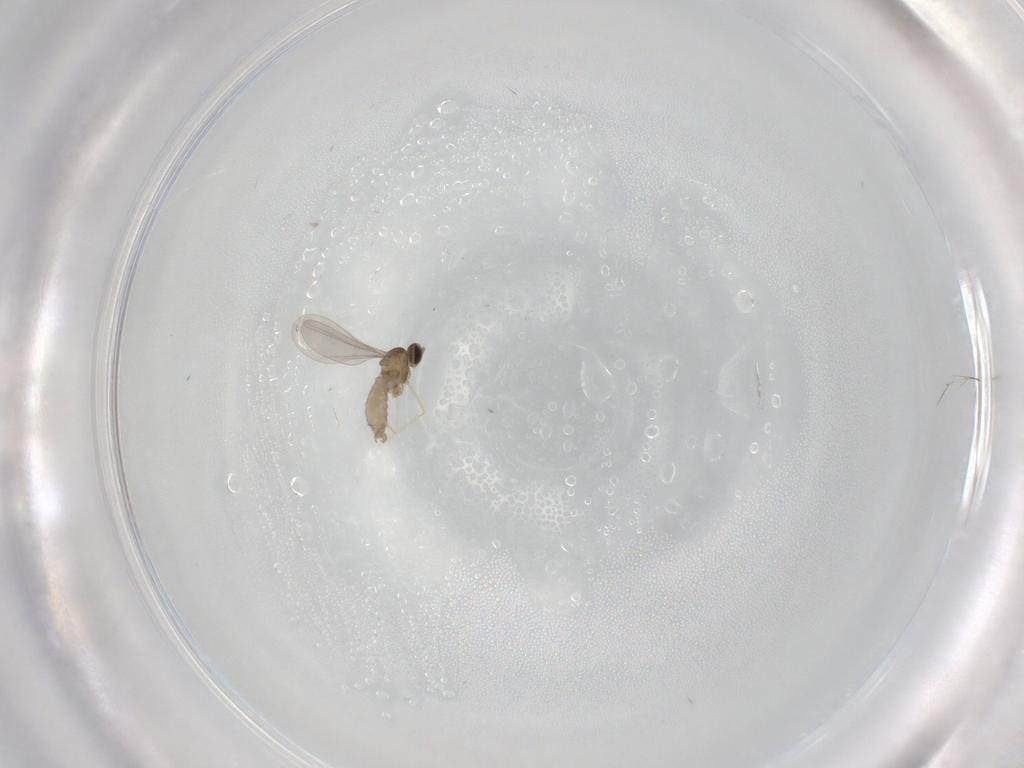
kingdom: Animalia
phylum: Arthropoda
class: Insecta
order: Diptera
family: Cecidomyiidae
